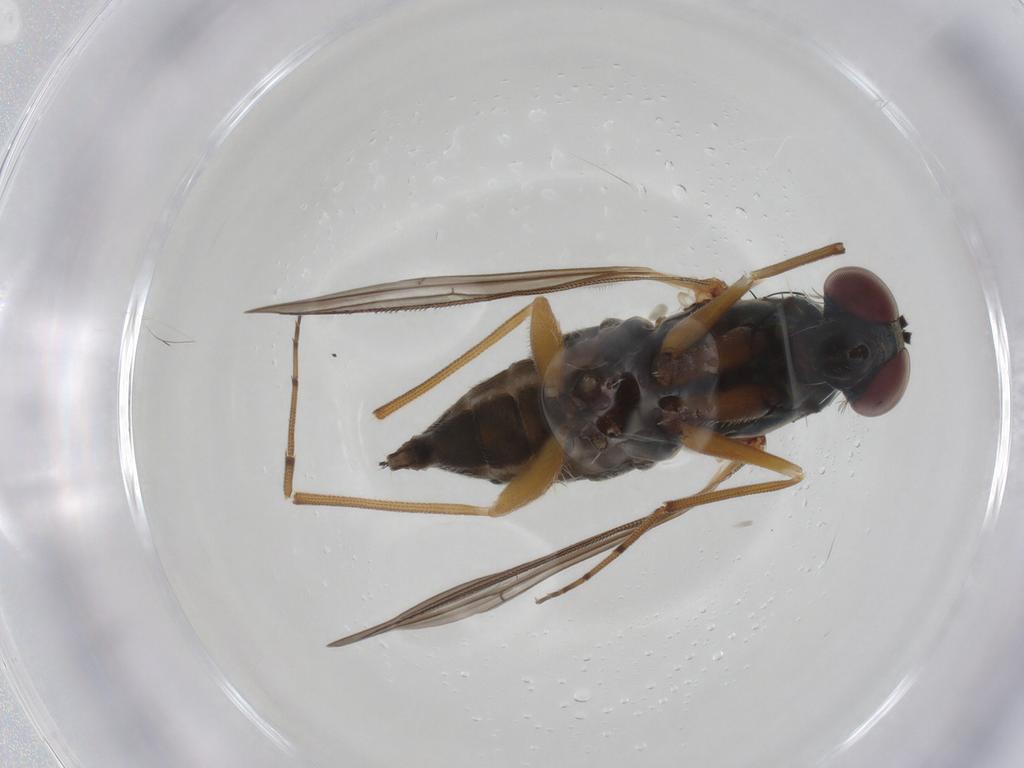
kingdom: Animalia
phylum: Arthropoda
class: Insecta
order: Diptera
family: Dolichopodidae
